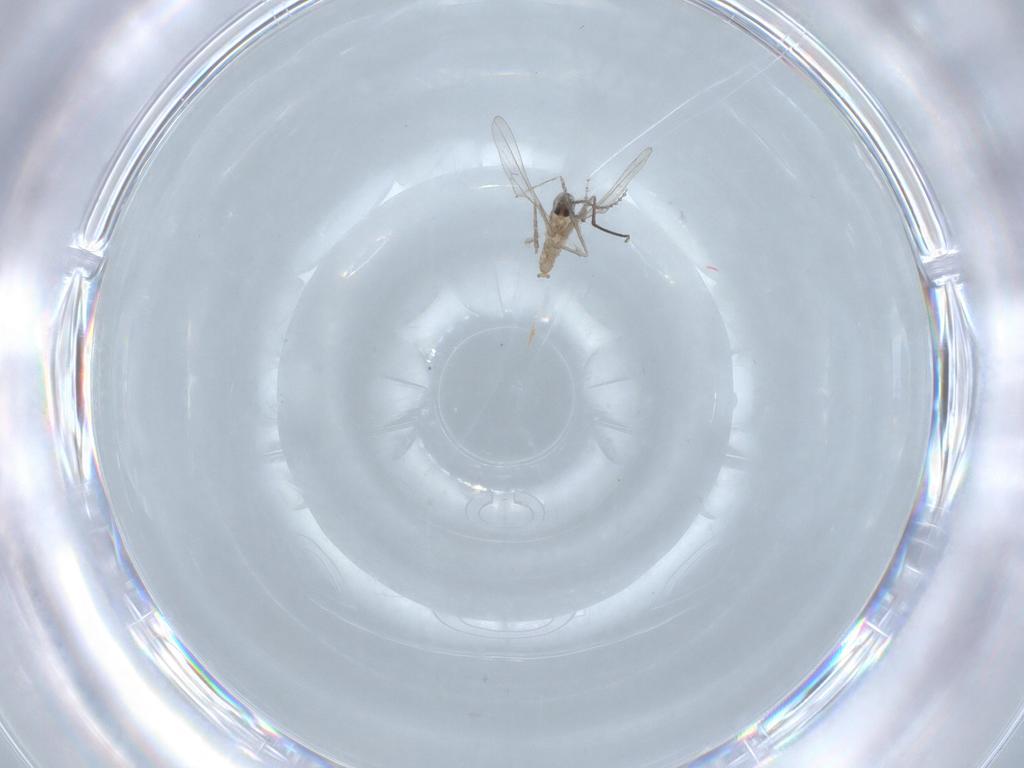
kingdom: Animalia
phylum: Arthropoda
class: Insecta
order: Diptera
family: Cecidomyiidae
